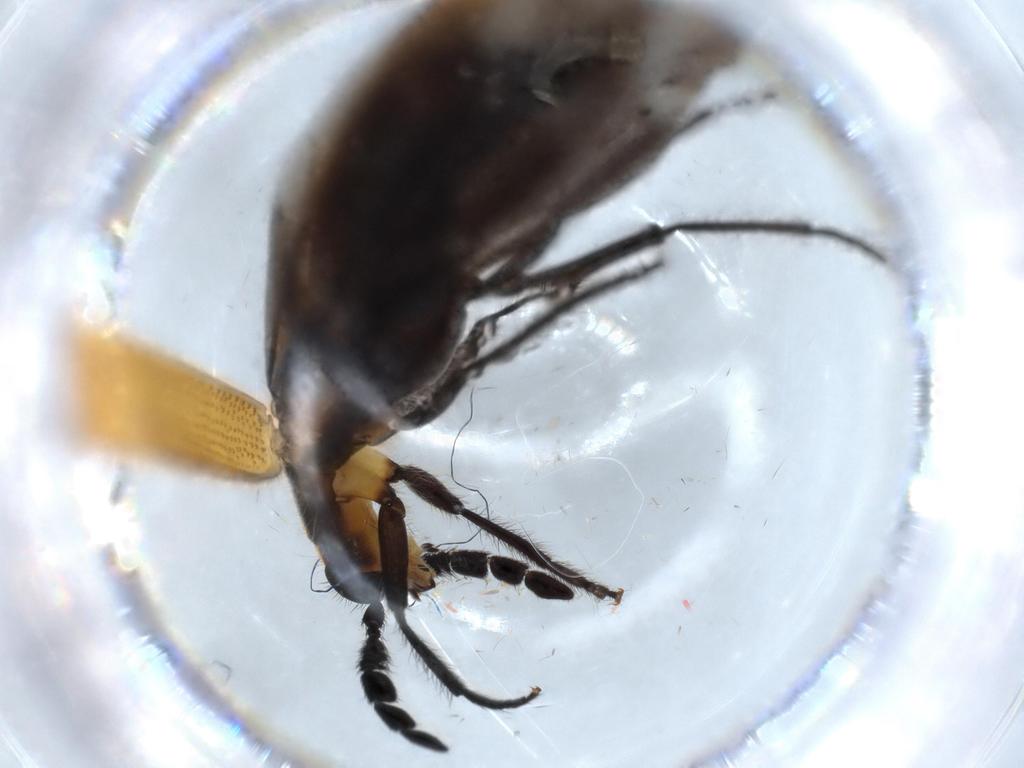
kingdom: Animalia
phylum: Arthropoda
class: Insecta
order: Coleoptera
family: Cleridae
